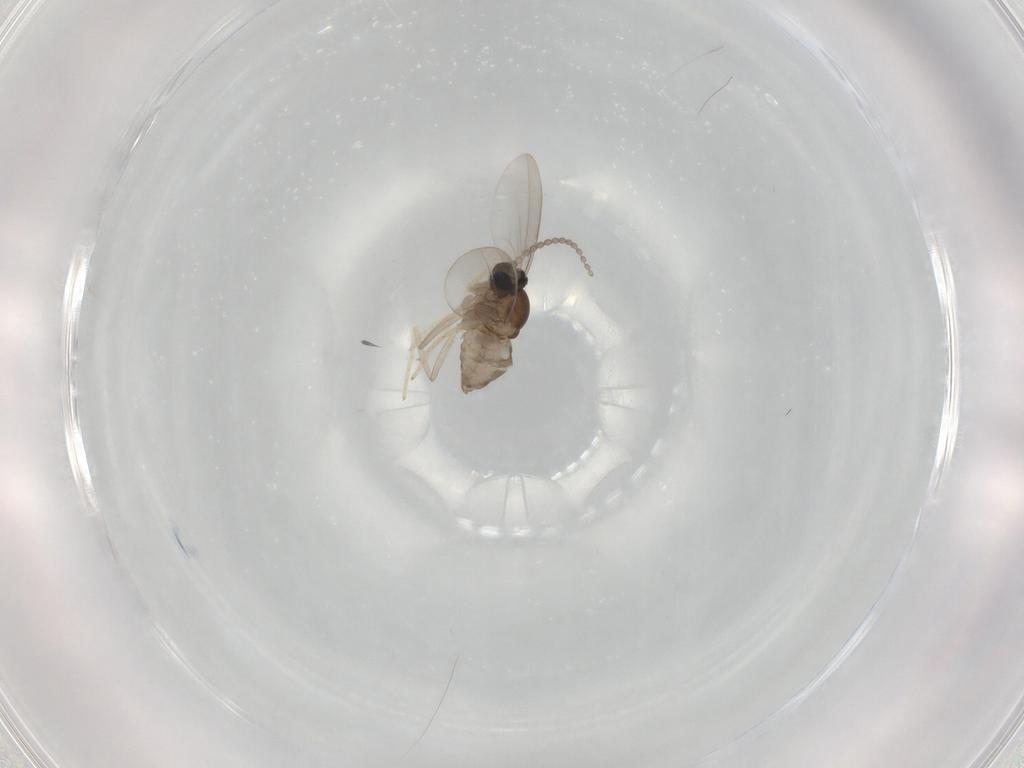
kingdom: Animalia
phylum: Arthropoda
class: Insecta
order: Diptera
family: Cecidomyiidae
